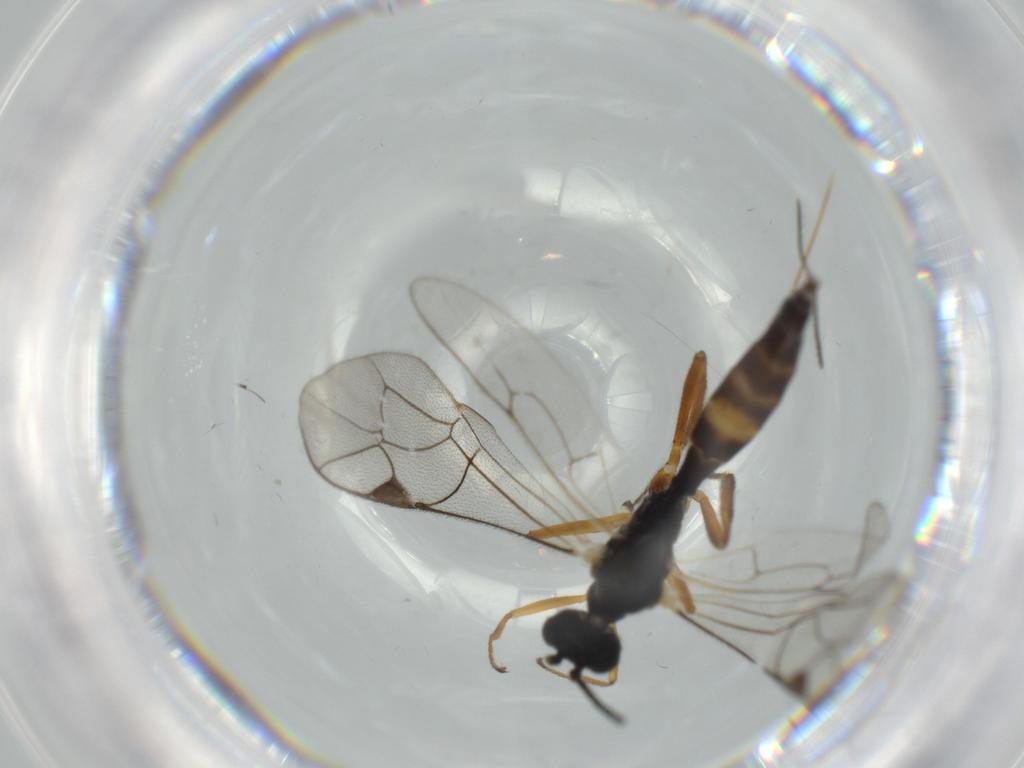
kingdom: Animalia
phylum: Arthropoda
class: Insecta
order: Hymenoptera
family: Ichneumonidae
